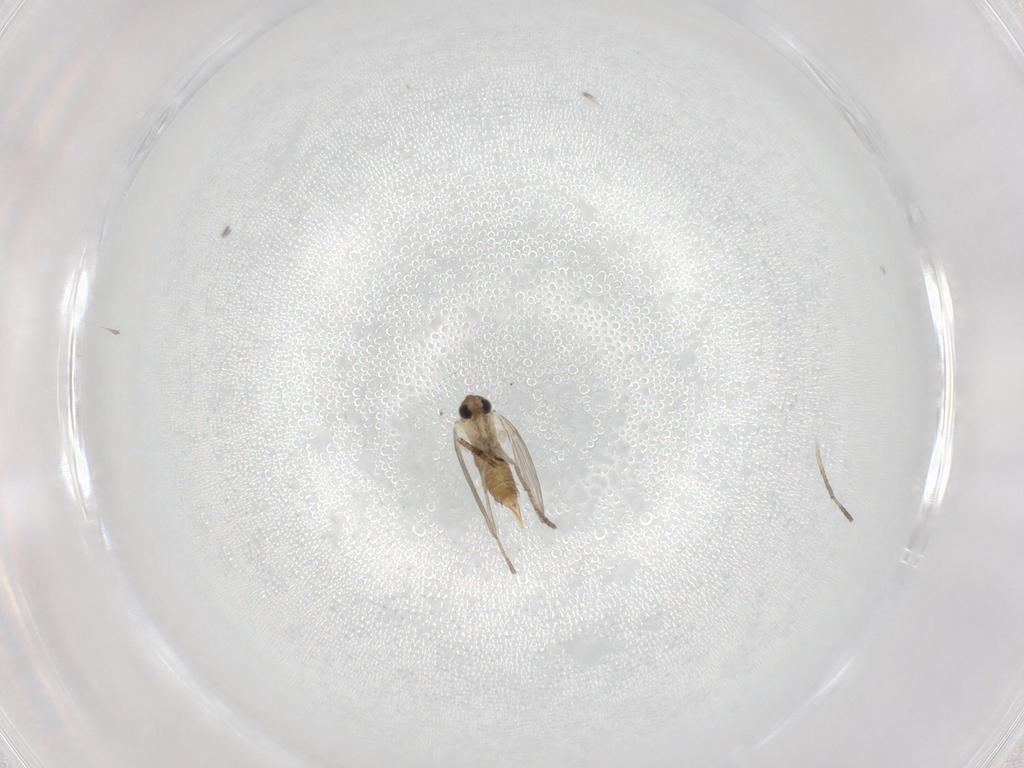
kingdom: Animalia
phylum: Arthropoda
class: Insecta
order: Diptera
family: Psychodidae
